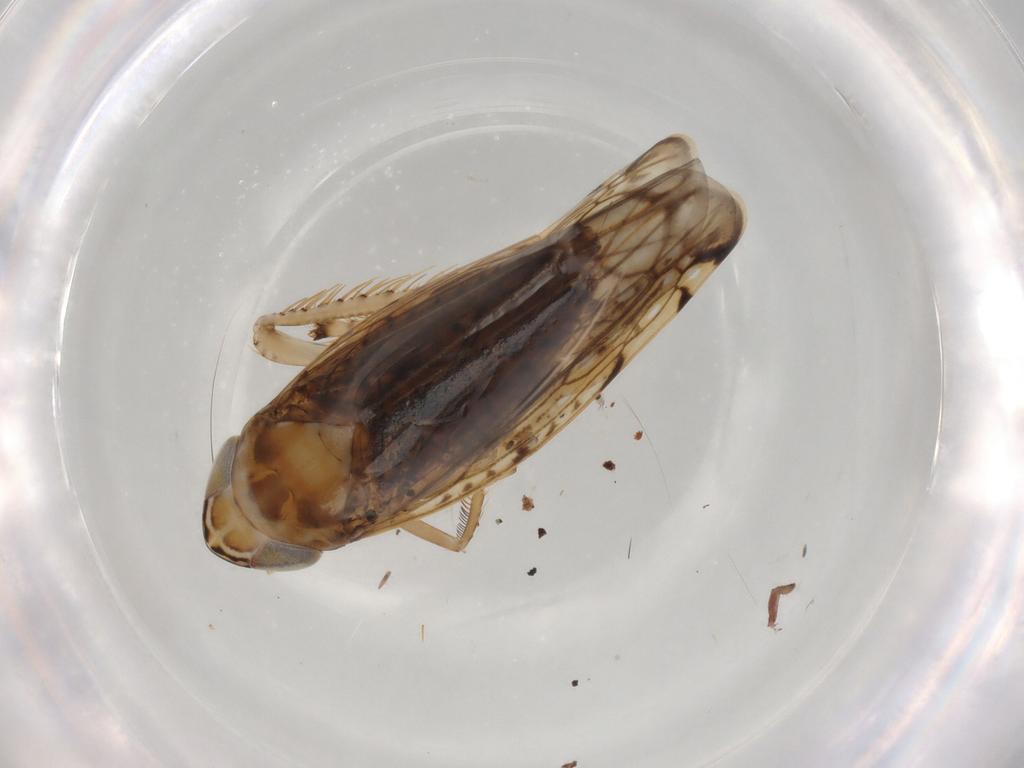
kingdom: Animalia
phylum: Arthropoda
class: Insecta
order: Hemiptera
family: Cicadellidae
